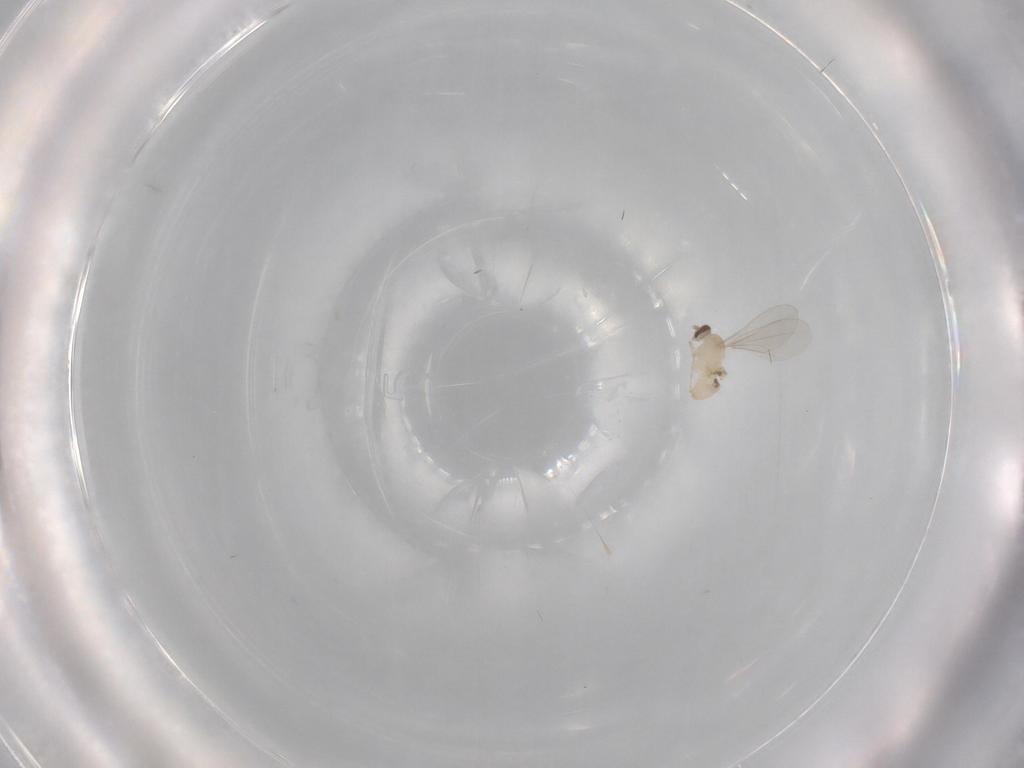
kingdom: Animalia
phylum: Arthropoda
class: Insecta
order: Diptera
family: Cecidomyiidae
